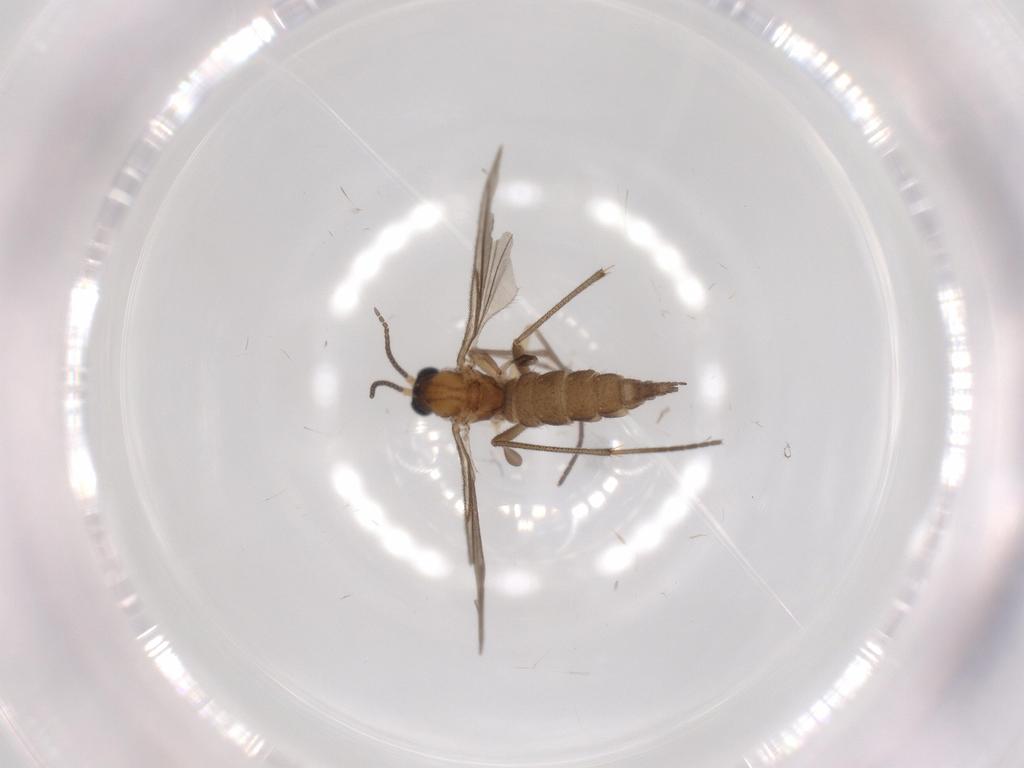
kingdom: Animalia
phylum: Arthropoda
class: Insecta
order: Diptera
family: Sciaridae
